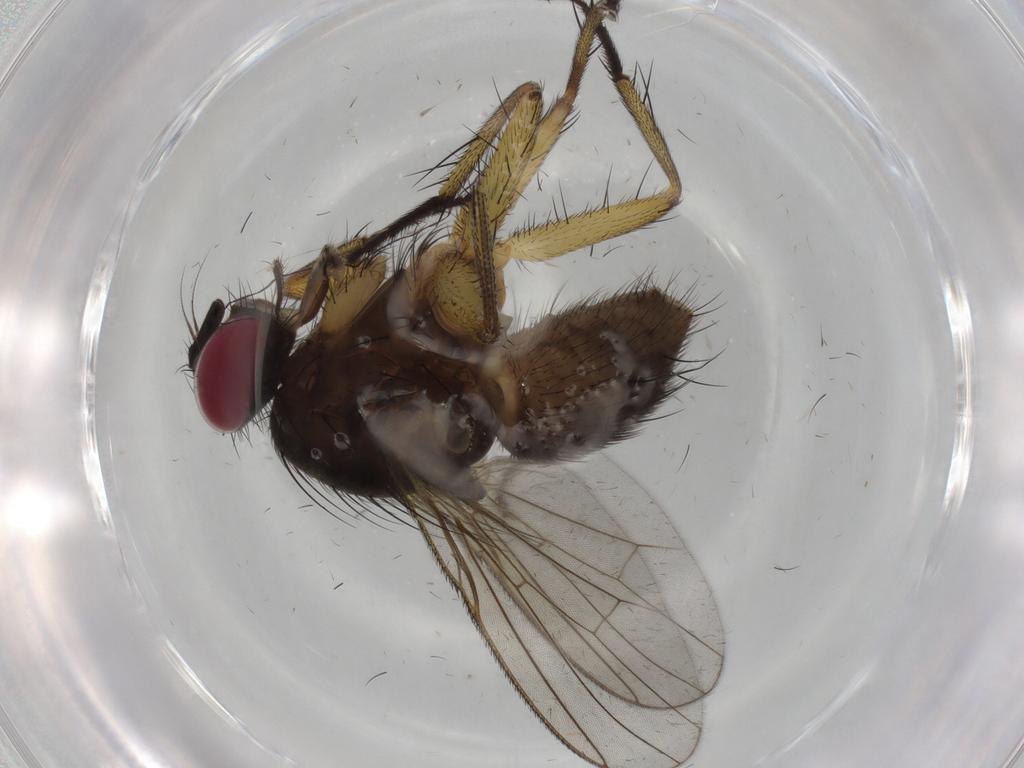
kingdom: Animalia
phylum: Arthropoda
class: Insecta
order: Diptera
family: Muscidae
